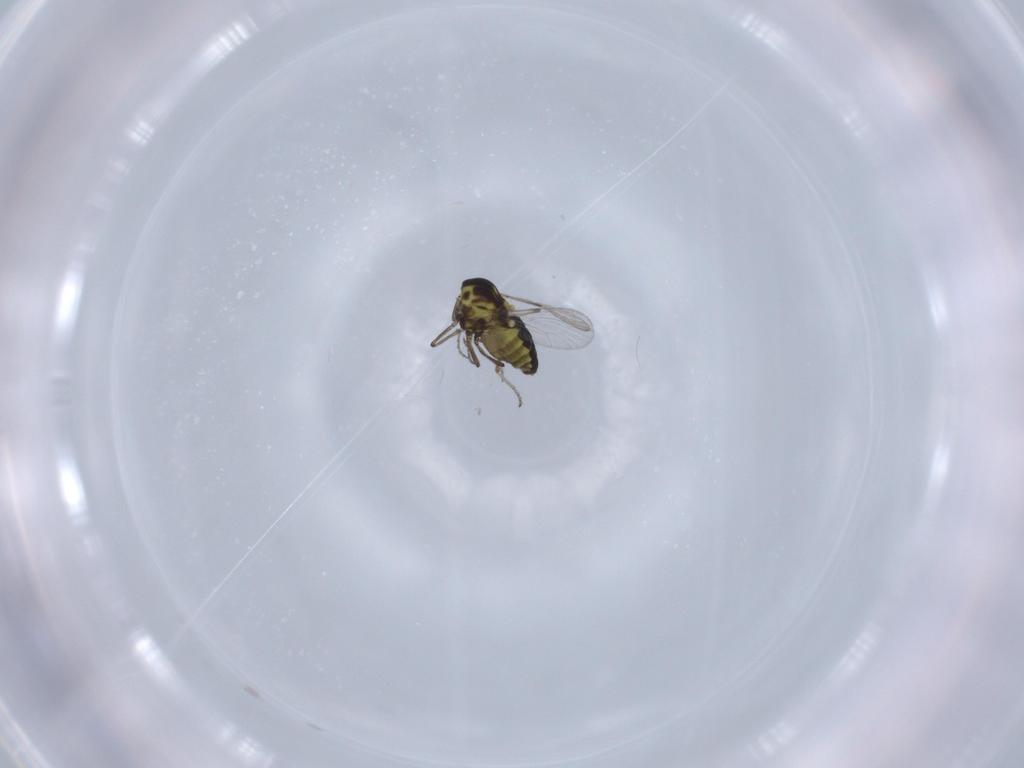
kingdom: Animalia
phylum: Arthropoda
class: Insecta
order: Diptera
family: Ceratopogonidae
